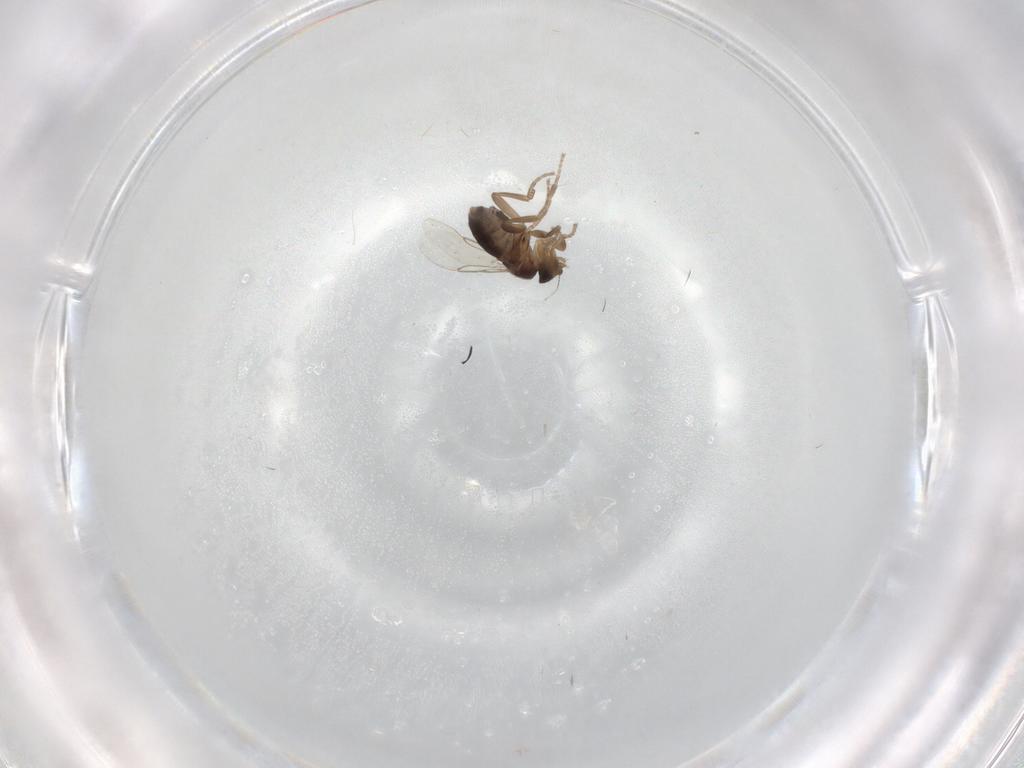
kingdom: Animalia
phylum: Arthropoda
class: Insecta
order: Diptera
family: Phoridae
